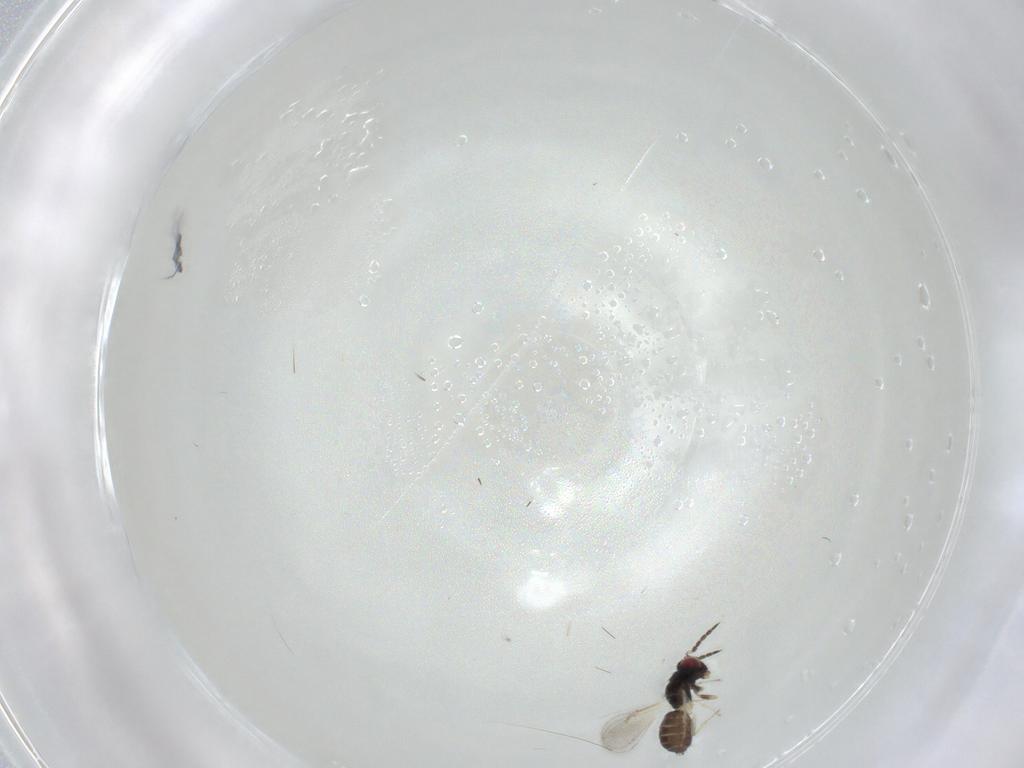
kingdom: Animalia
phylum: Arthropoda
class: Insecta
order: Hymenoptera
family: Eulophidae
